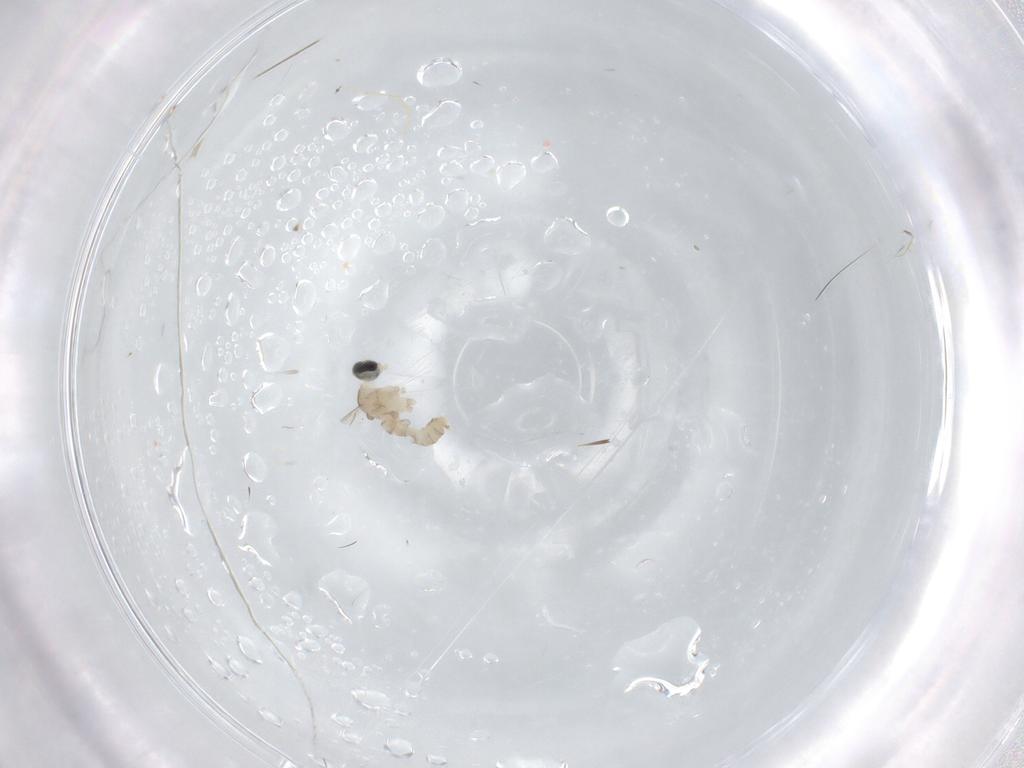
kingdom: Animalia
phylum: Arthropoda
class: Insecta
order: Diptera
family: Cecidomyiidae
